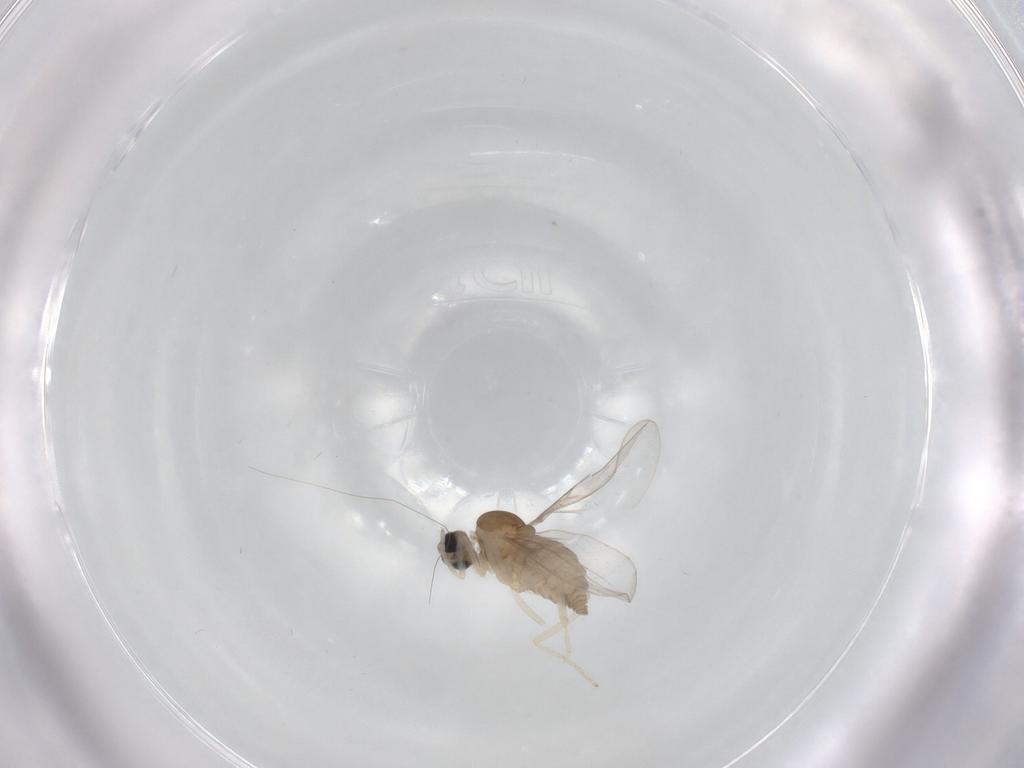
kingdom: Animalia
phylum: Arthropoda
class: Insecta
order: Diptera
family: Cecidomyiidae
